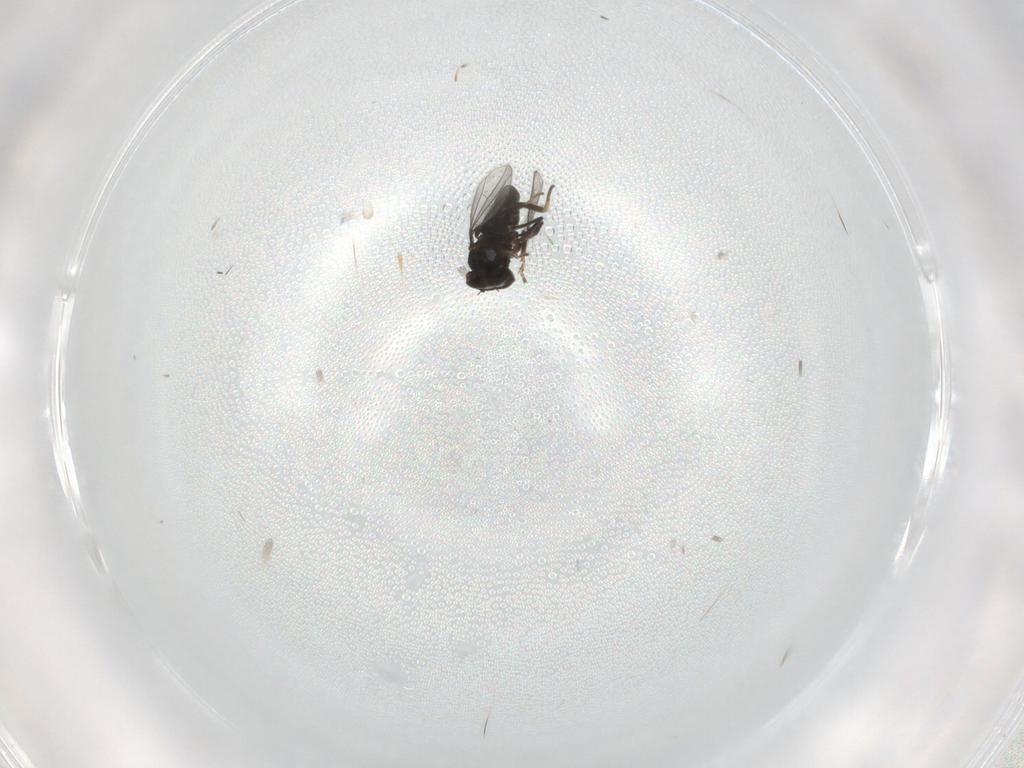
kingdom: Animalia
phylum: Arthropoda
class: Insecta
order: Diptera
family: Dolichopodidae
